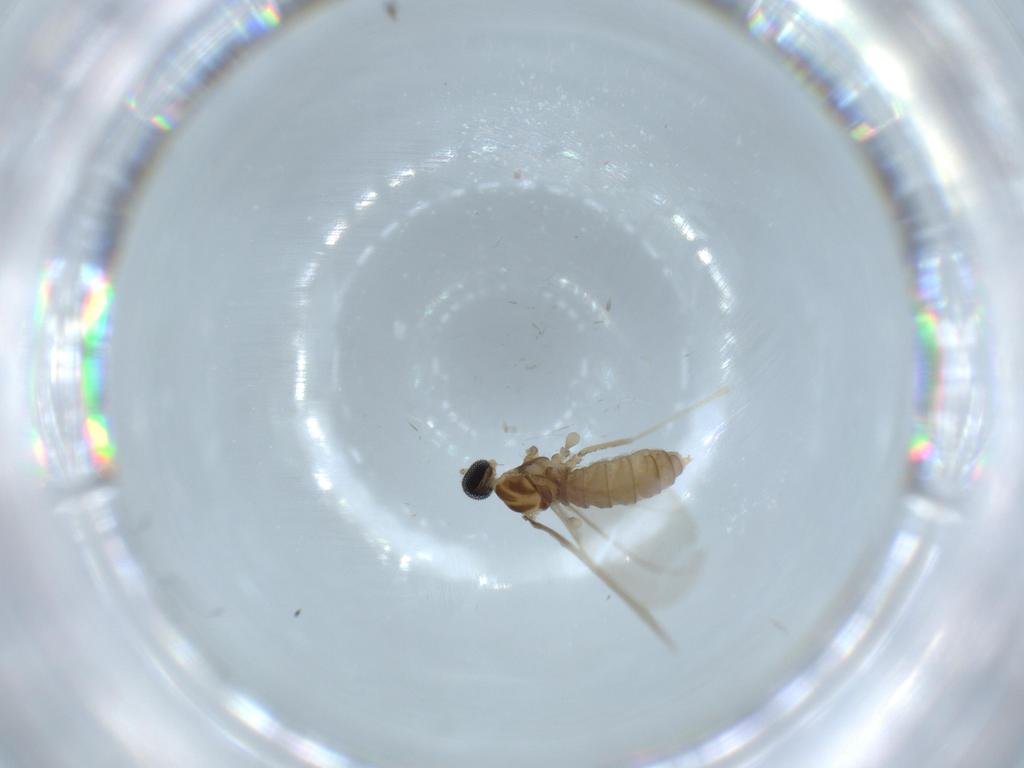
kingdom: Animalia
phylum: Arthropoda
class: Insecta
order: Diptera
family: Cecidomyiidae
